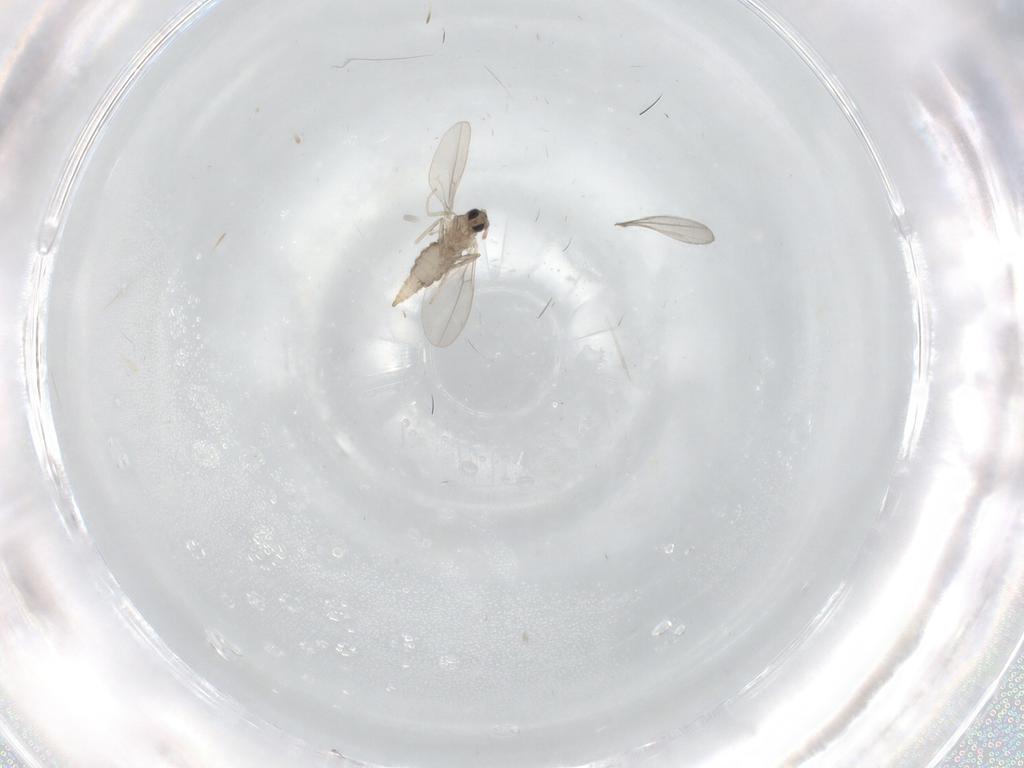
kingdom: Animalia
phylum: Arthropoda
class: Insecta
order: Diptera
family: Cecidomyiidae
